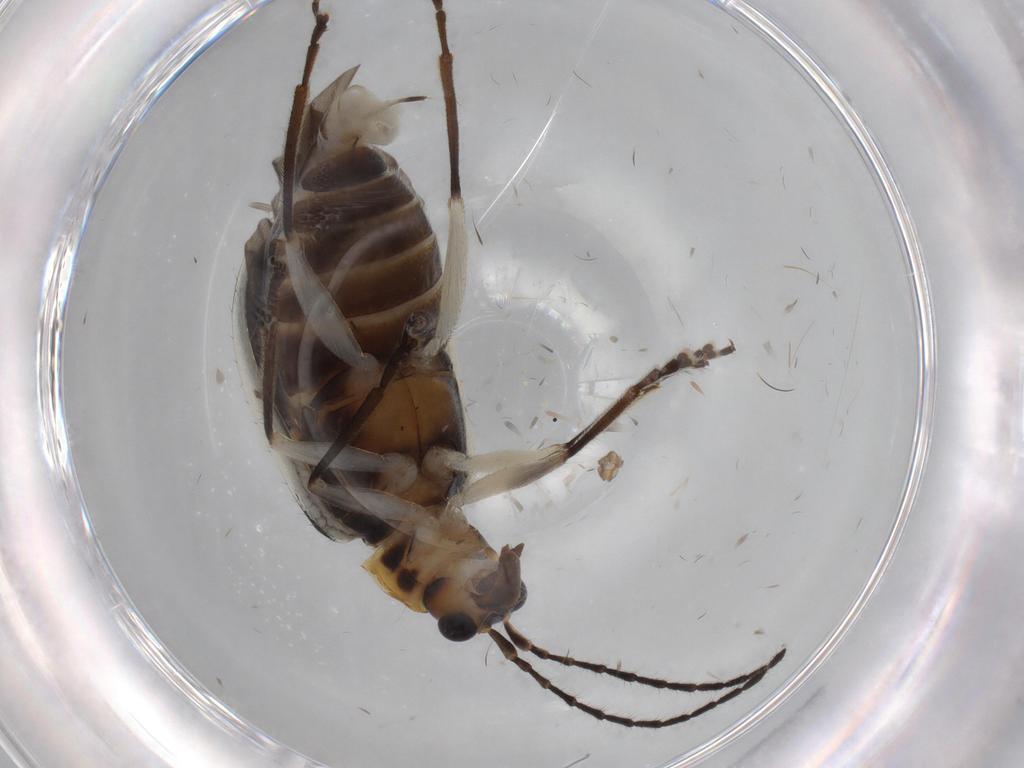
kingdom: Animalia
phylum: Arthropoda
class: Insecta
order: Coleoptera
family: Chrysomelidae
